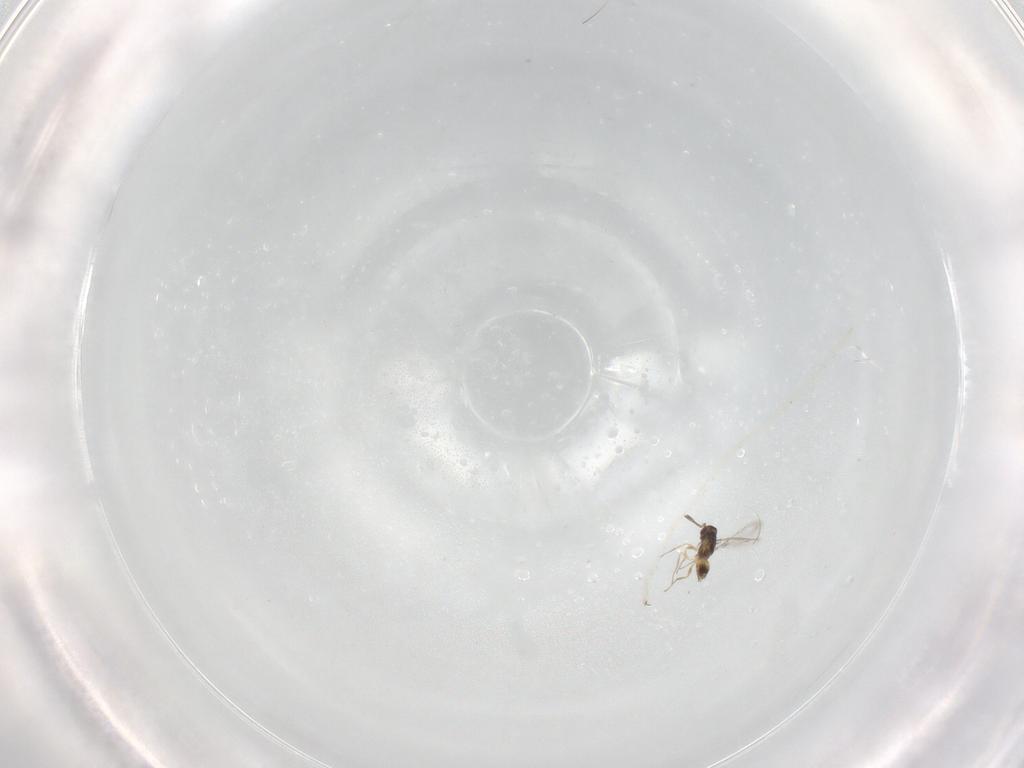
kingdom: Animalia
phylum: Arthropoda
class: Insecta
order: Hymenoptera
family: Mymaridae
